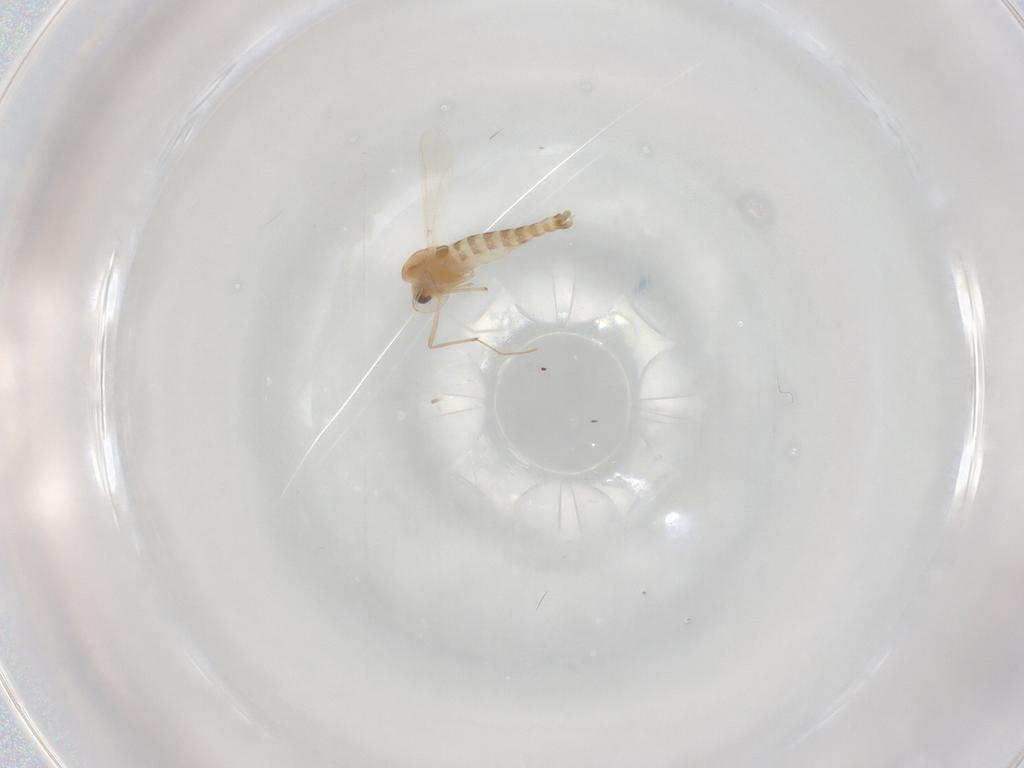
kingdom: Animalia
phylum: Arthropoda
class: Insecta
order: Diptera
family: Chironomidae
